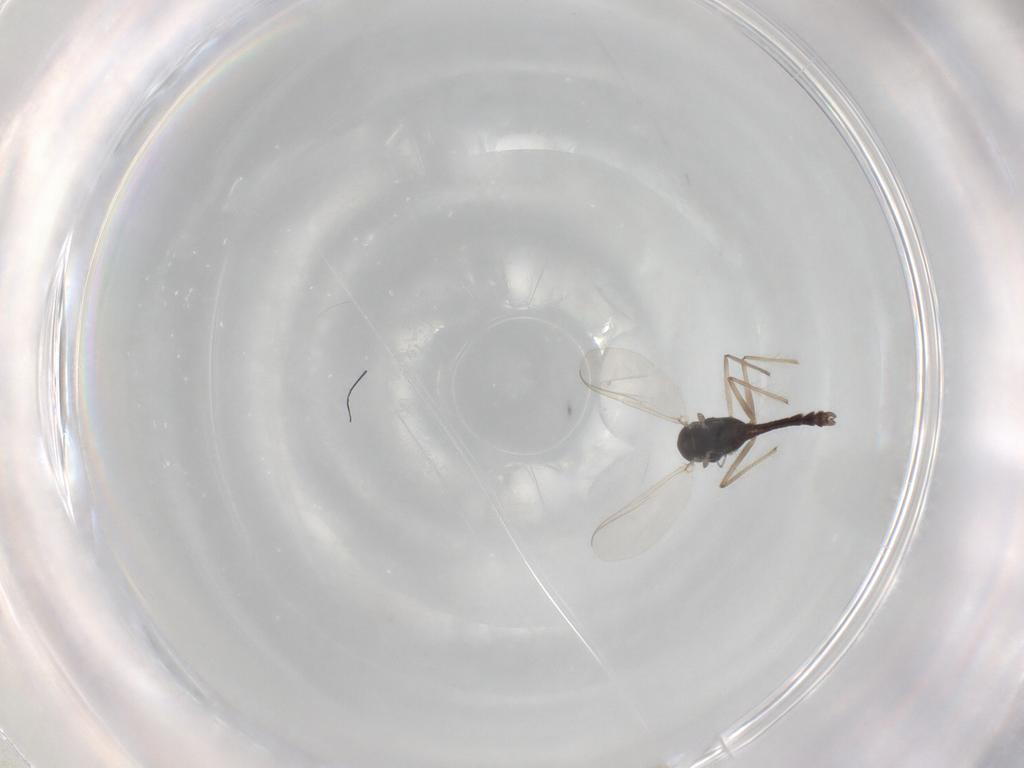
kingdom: Animalia
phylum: Arthropoda
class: Insecta
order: Diptera
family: Chironomidae
